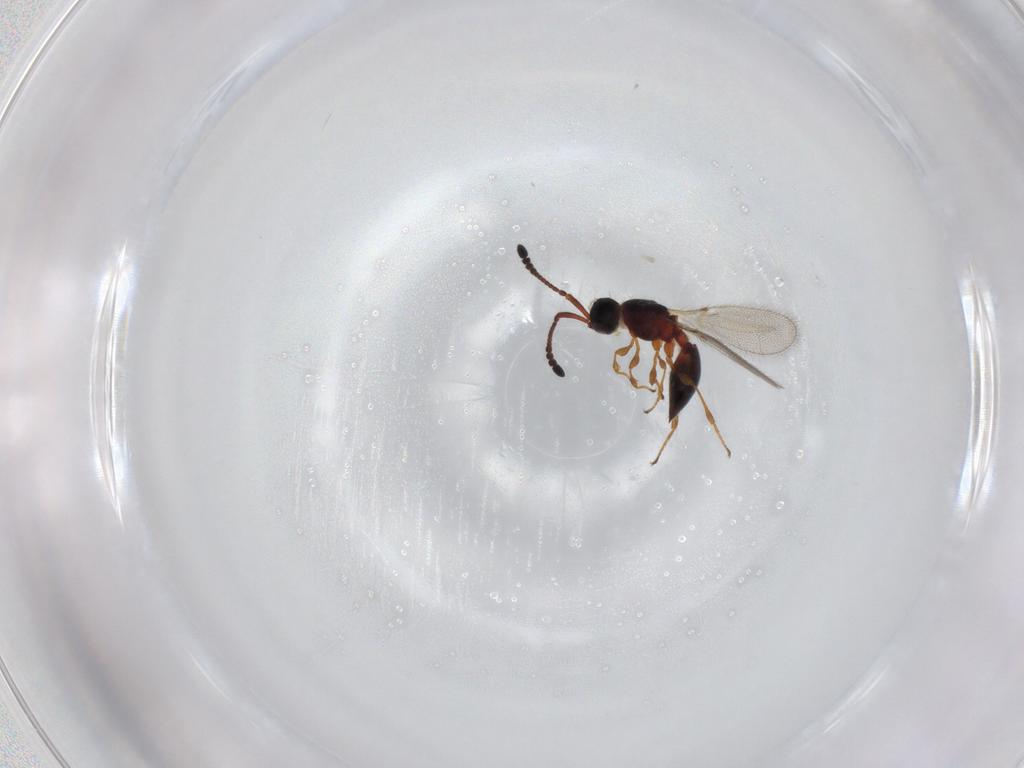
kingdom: Animalia
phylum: Arthropoda
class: Insecta
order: Hymenoptera
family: Diapriidae
